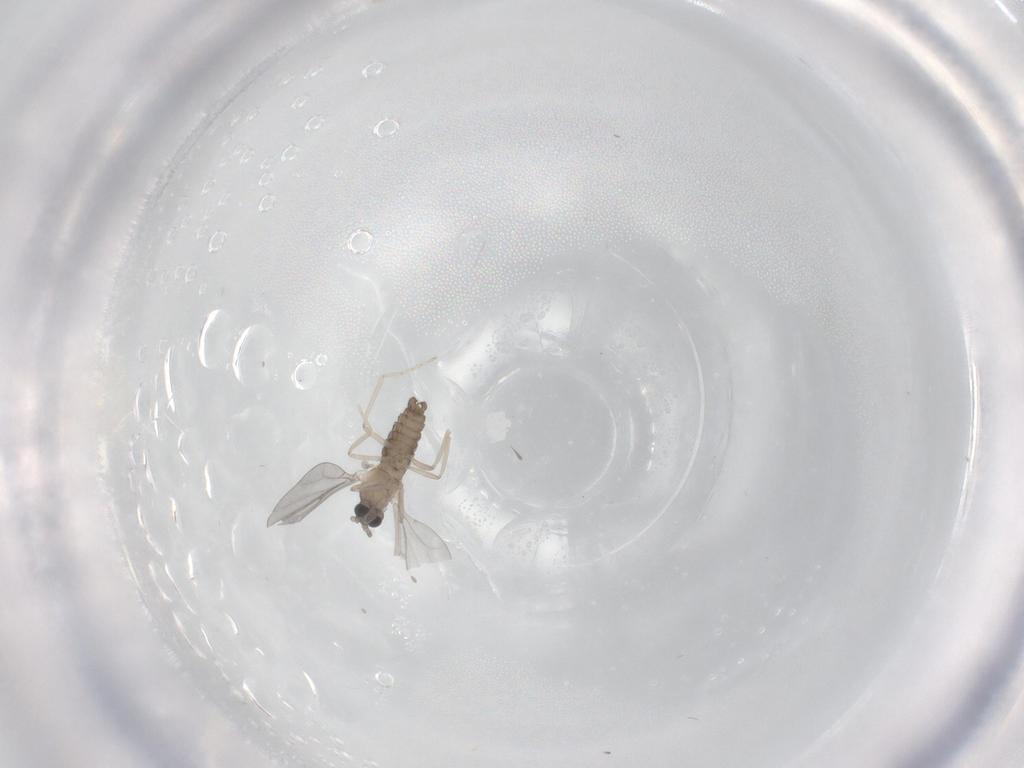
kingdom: Animalia
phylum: Arthropoda
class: Insecta
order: Diptera
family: Cecidomyiidae
